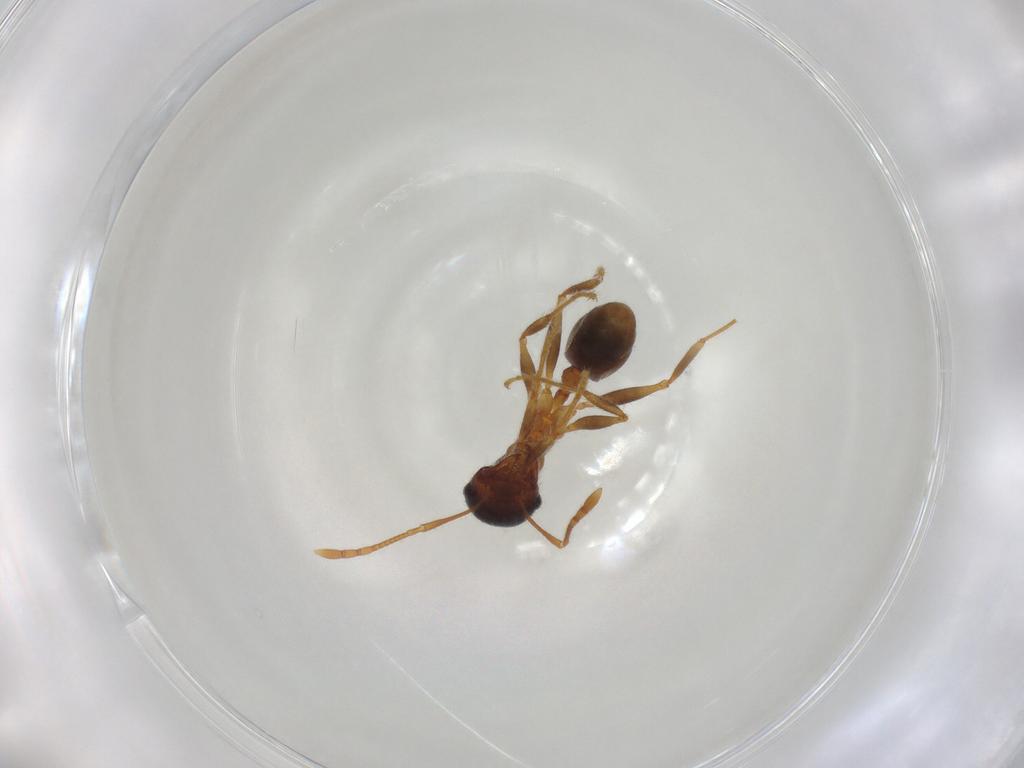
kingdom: Animalia
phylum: Arthropoda
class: Insecta
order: Hymenoptera
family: Formicidae
